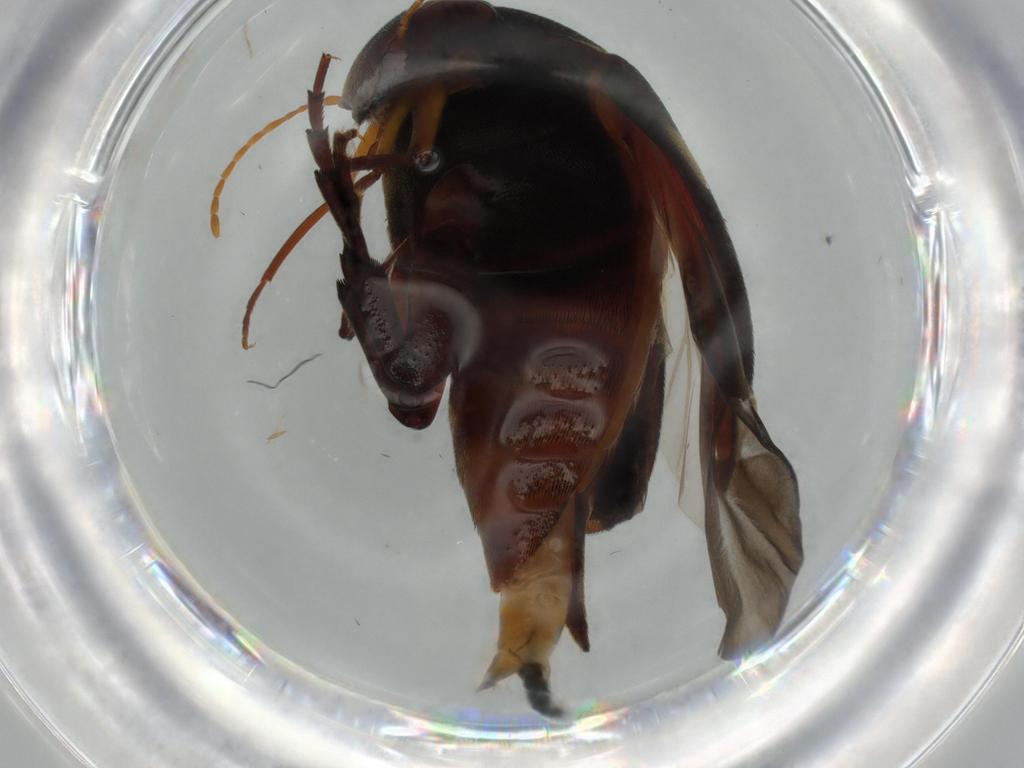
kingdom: Animalia
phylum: Arthropoda
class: Insecta
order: Coleoptera
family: Mordellidae
